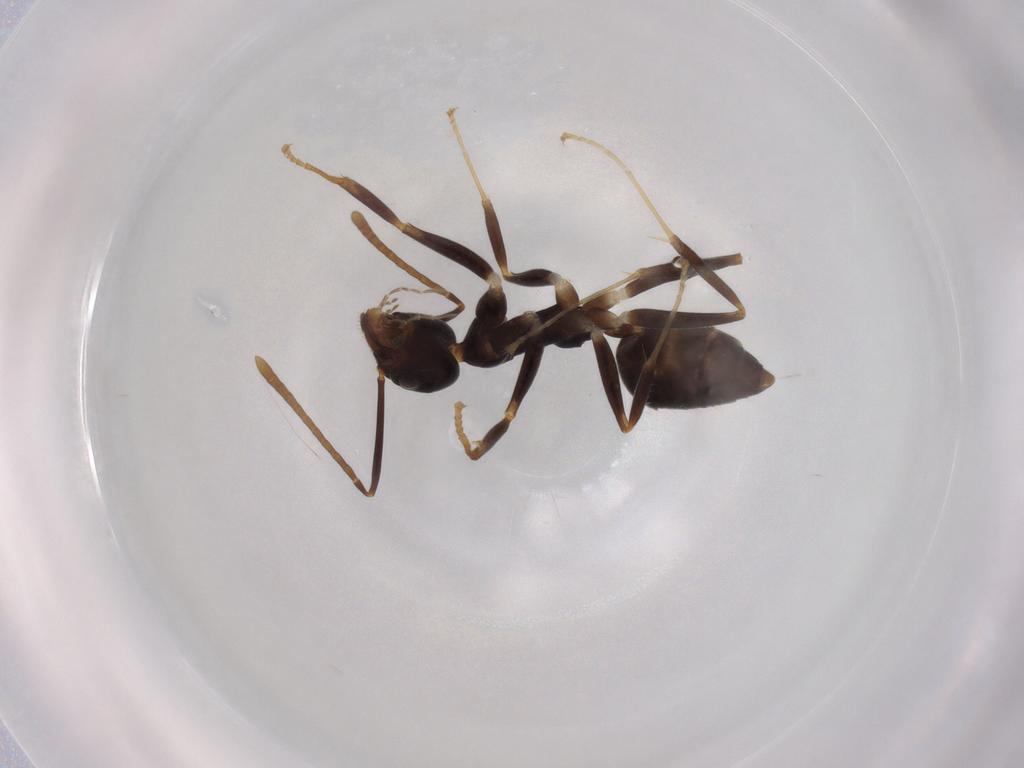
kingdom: Animalia
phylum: Arthropoda
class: Insecta
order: Hymenoptera
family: Formicidae
